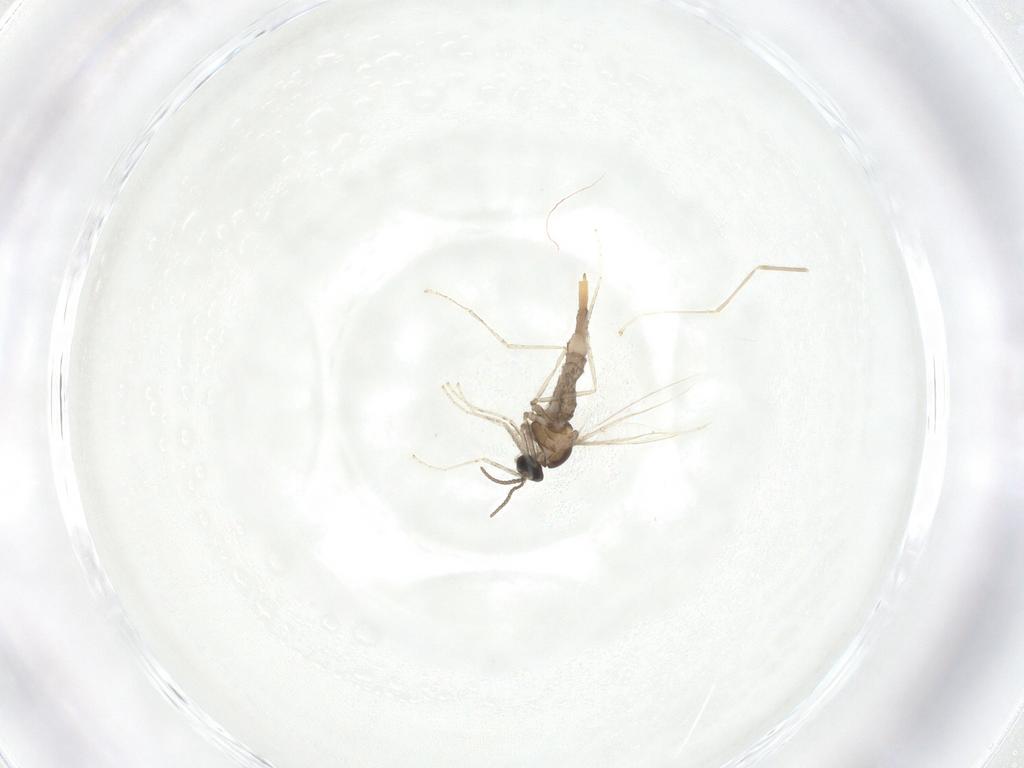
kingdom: Animalia
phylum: Arthropoda
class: Insecta
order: Diptera
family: Cecidomyiidae
